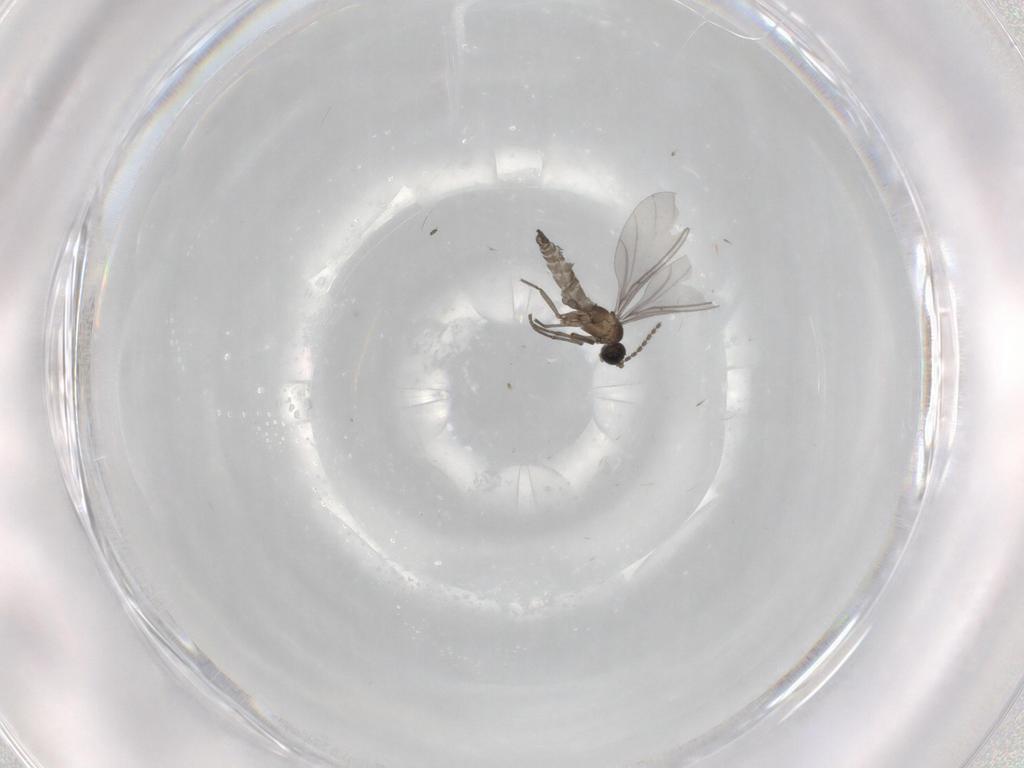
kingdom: Animalia
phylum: Arthropoda
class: Insecta
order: Diptera
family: Sciaridae
